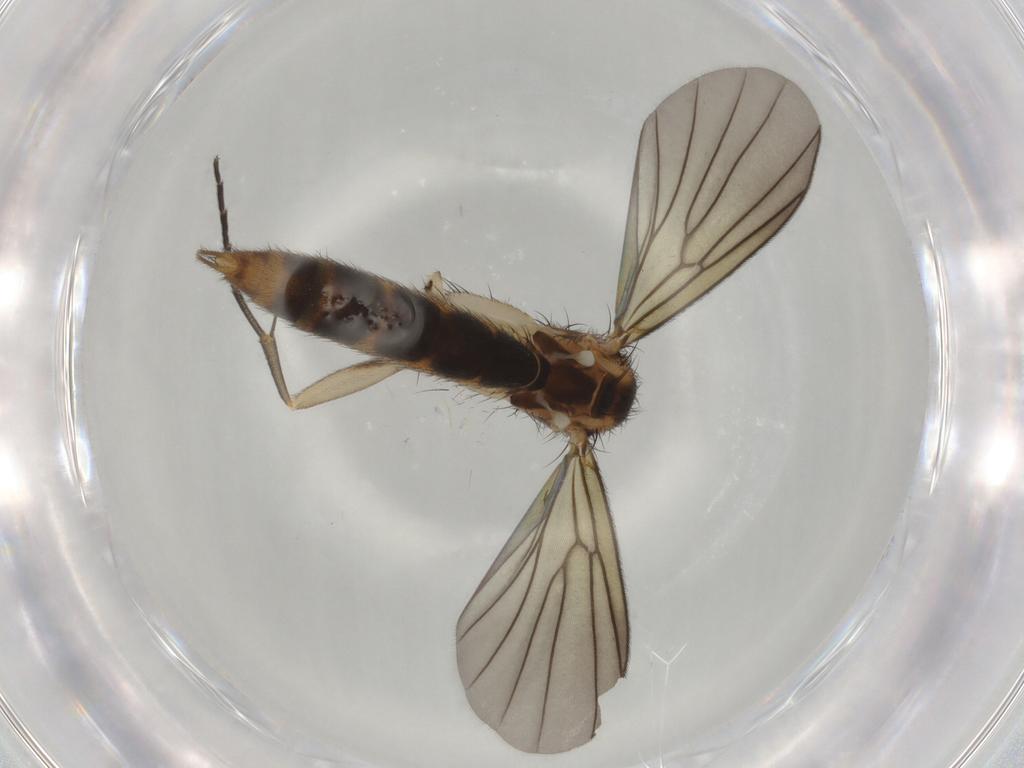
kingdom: Animalia
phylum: Arthropoda
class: Insecta
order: Diptera
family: Mycetophilidae
